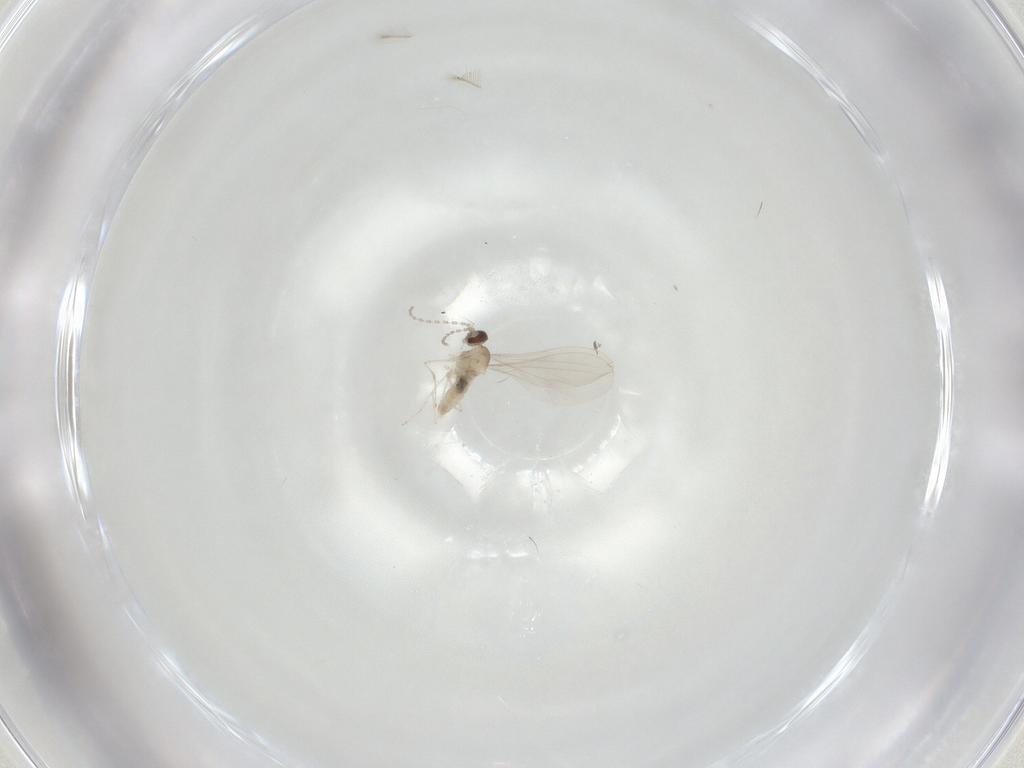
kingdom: Animalia
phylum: Arthropoda
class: Insecta
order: Diptera
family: Cecidomyiidae
